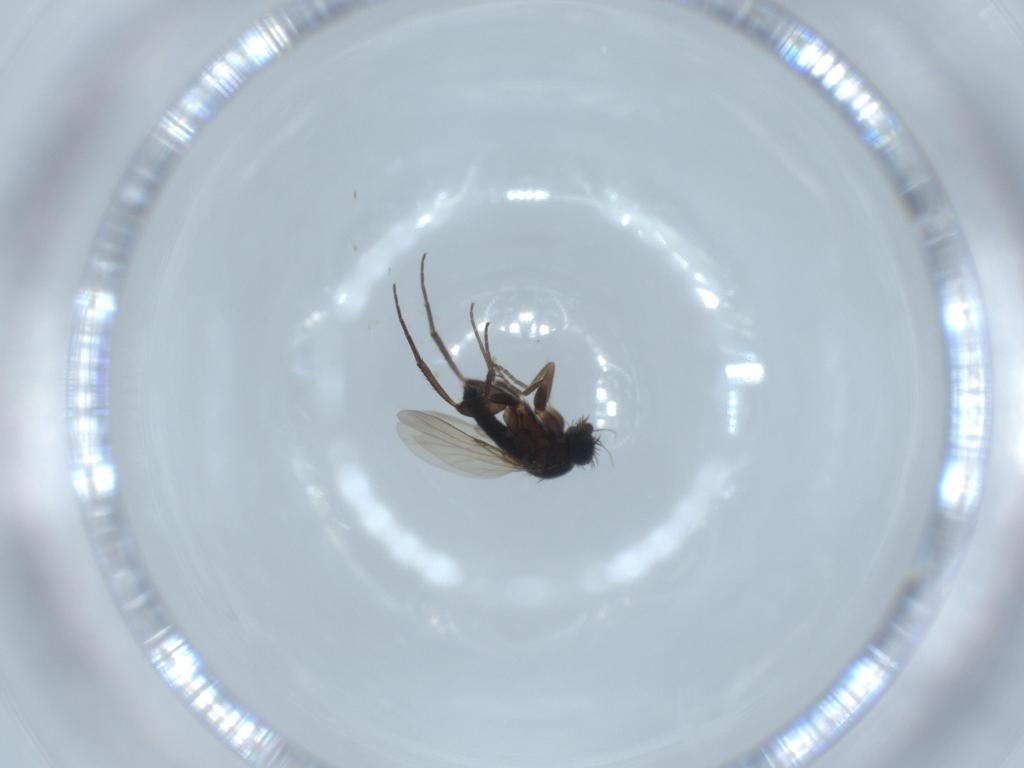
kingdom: Animalia
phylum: Arthropoda
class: Insecta
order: Diptera
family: Phoridae
